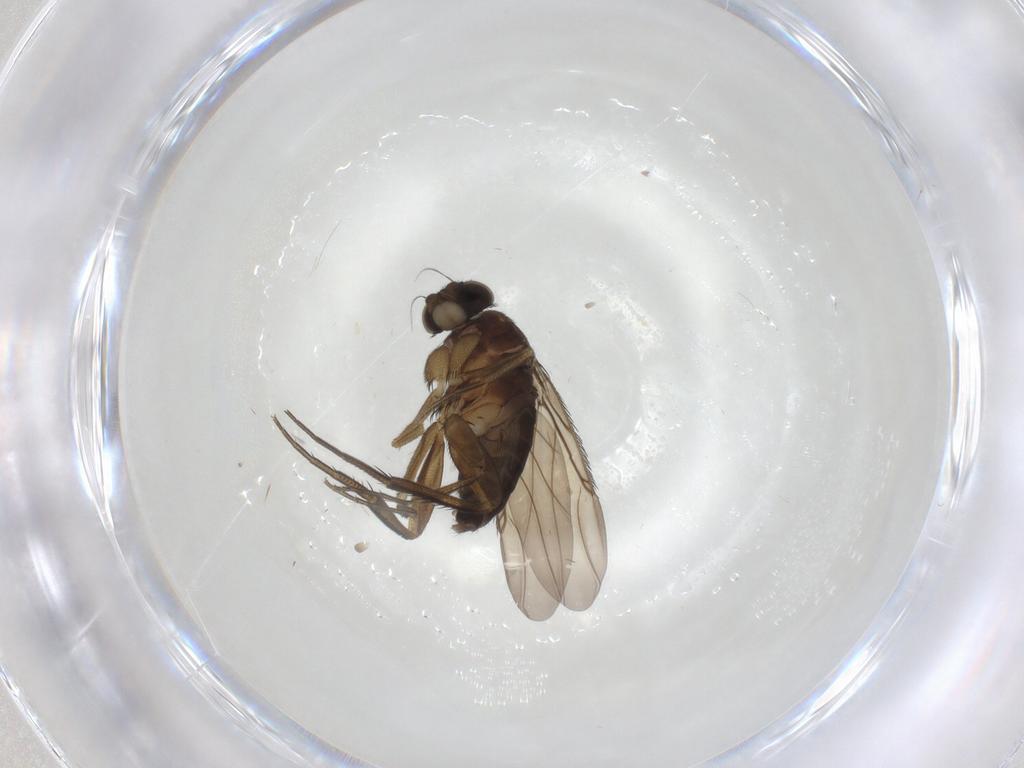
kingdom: Animalia
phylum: Arthropoda
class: Insecta
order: Diptera
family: Phoridae
